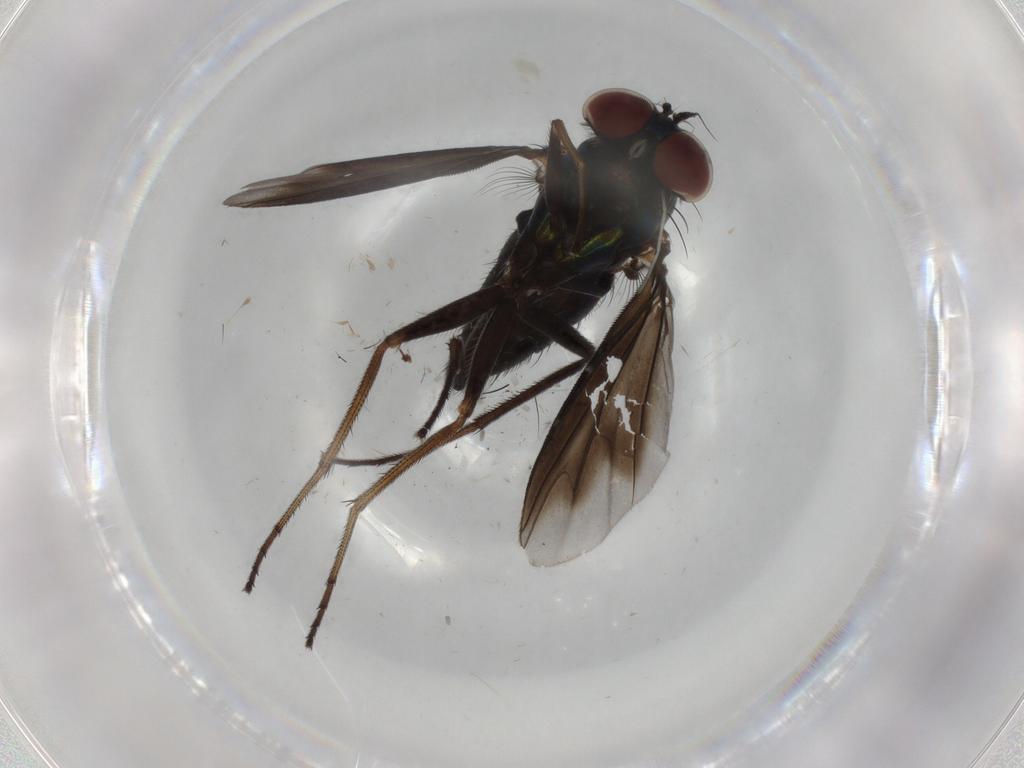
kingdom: Animalia
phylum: Arthropoda
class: Insecta
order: Diptera
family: Dolichopodidae
